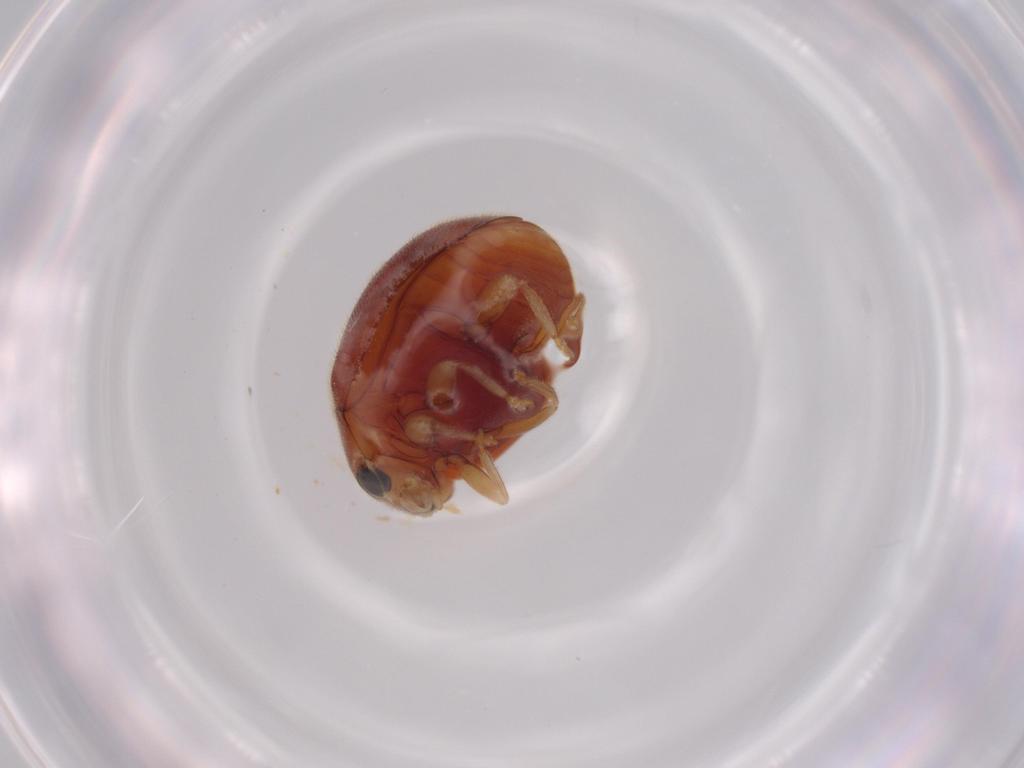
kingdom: Animalia
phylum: Arthropoda
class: Insecta
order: Coleoptera
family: Coccinellidae
